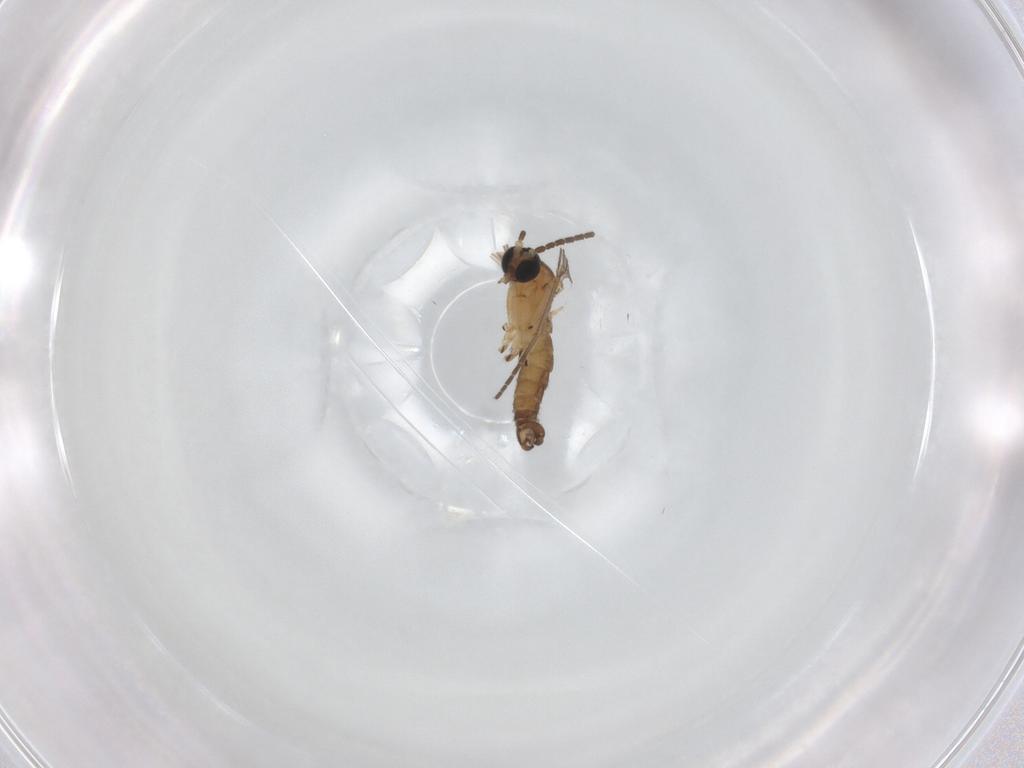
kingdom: Animalia
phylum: Arthropoda
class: Insecta
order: Diptera
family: Sciaridae
